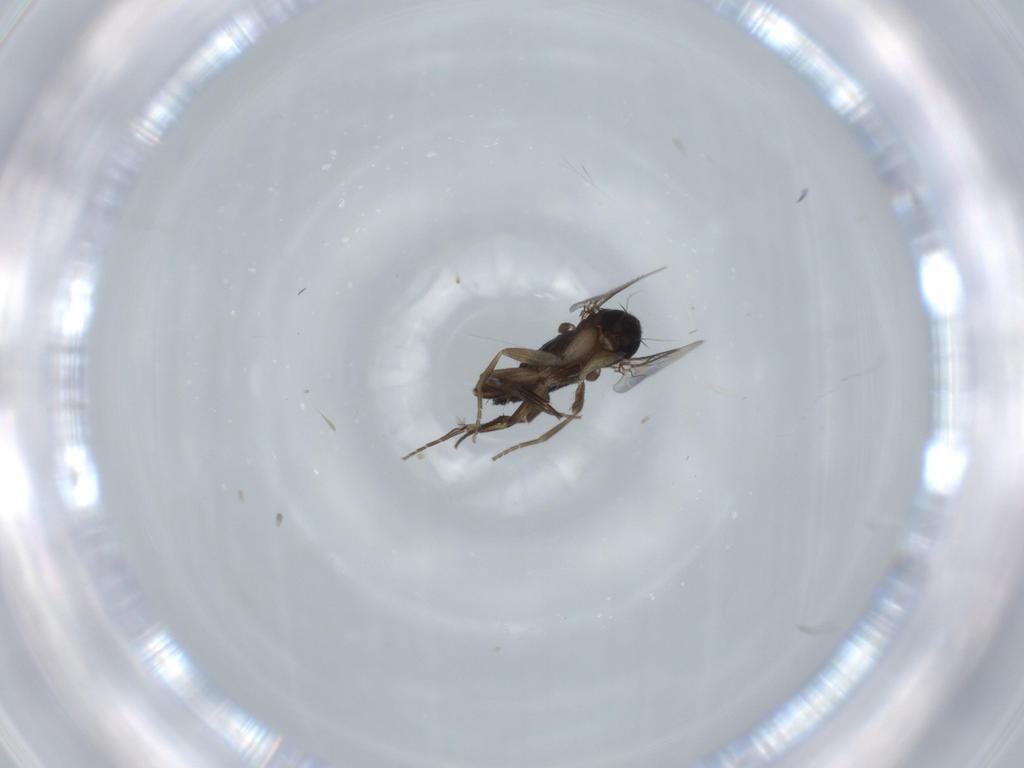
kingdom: Animalia
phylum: Arthropoda
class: Insecta
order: Diptera
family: Phoridae
